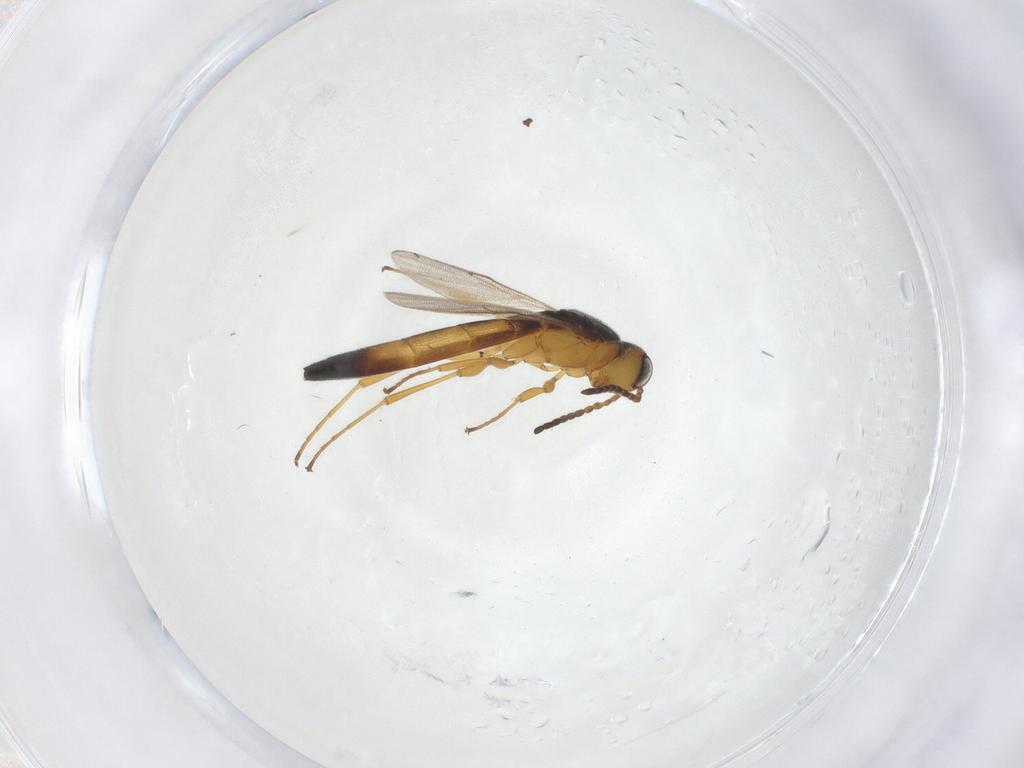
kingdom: Animalia
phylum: Arthropoda
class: Insecta
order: Hymenoptera
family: Scelionidae
